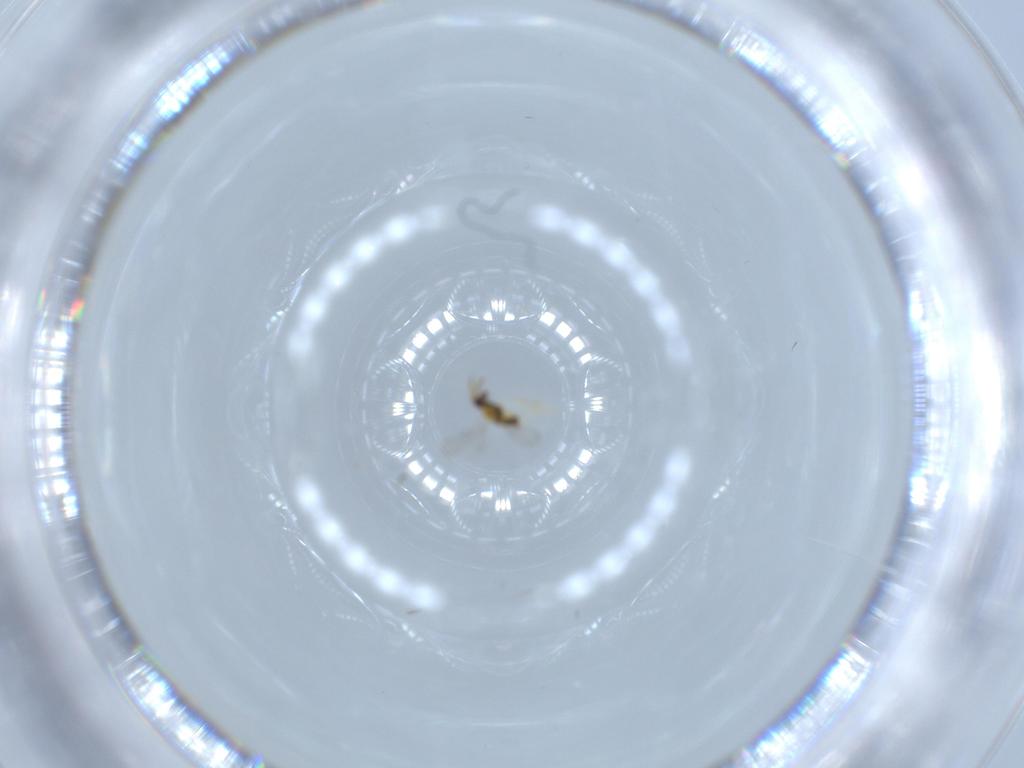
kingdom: Animalia
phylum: Arthropoda
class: Insecta
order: Hymenoptera
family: Aphelinidae
